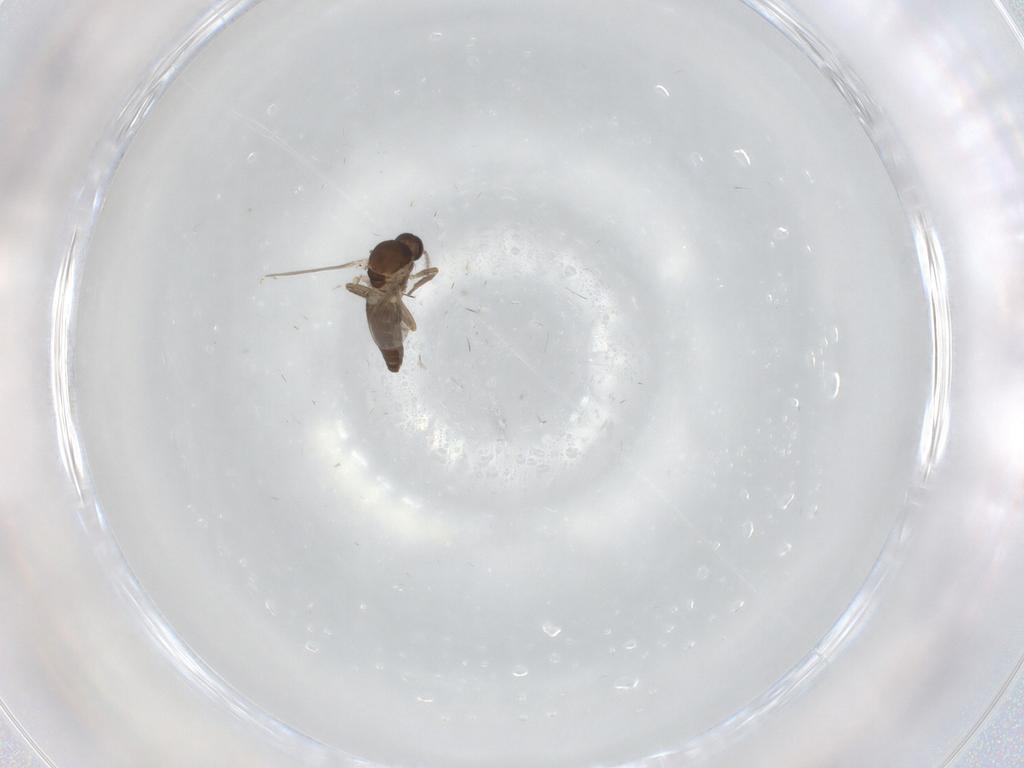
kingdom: Animalia
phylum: Arthropoda
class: Insecta
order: Diptera
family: Ceratopogonidae
